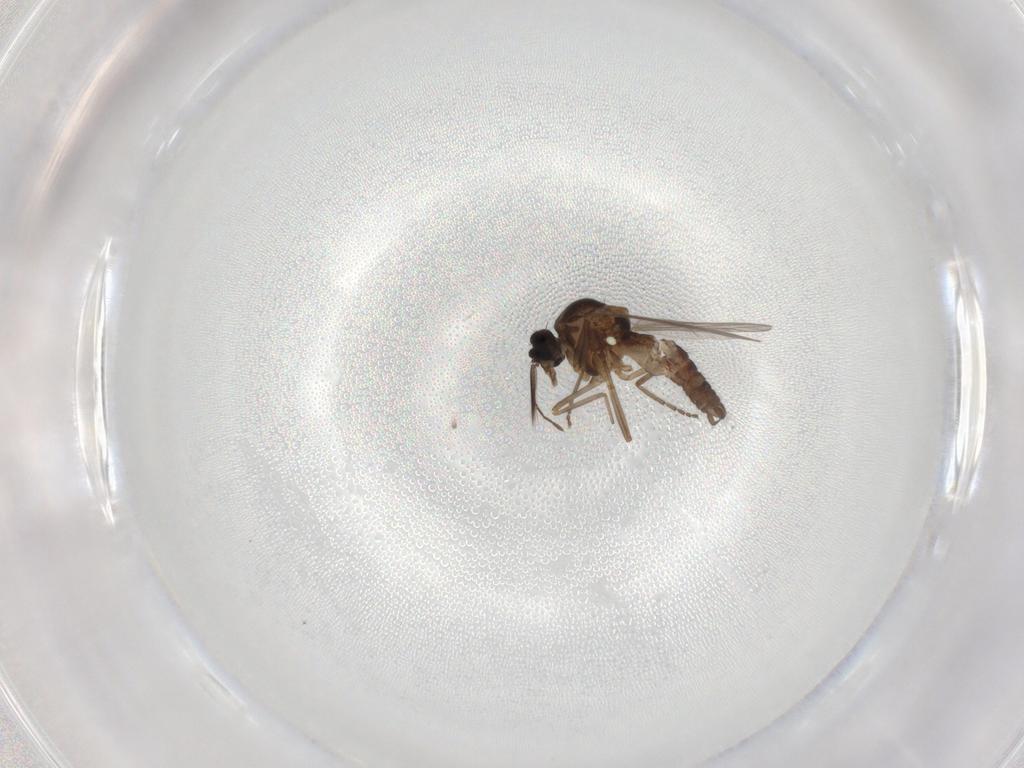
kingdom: Animalia
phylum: Arthropoda
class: Insecta
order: Diptera
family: Ceratopogonidae
